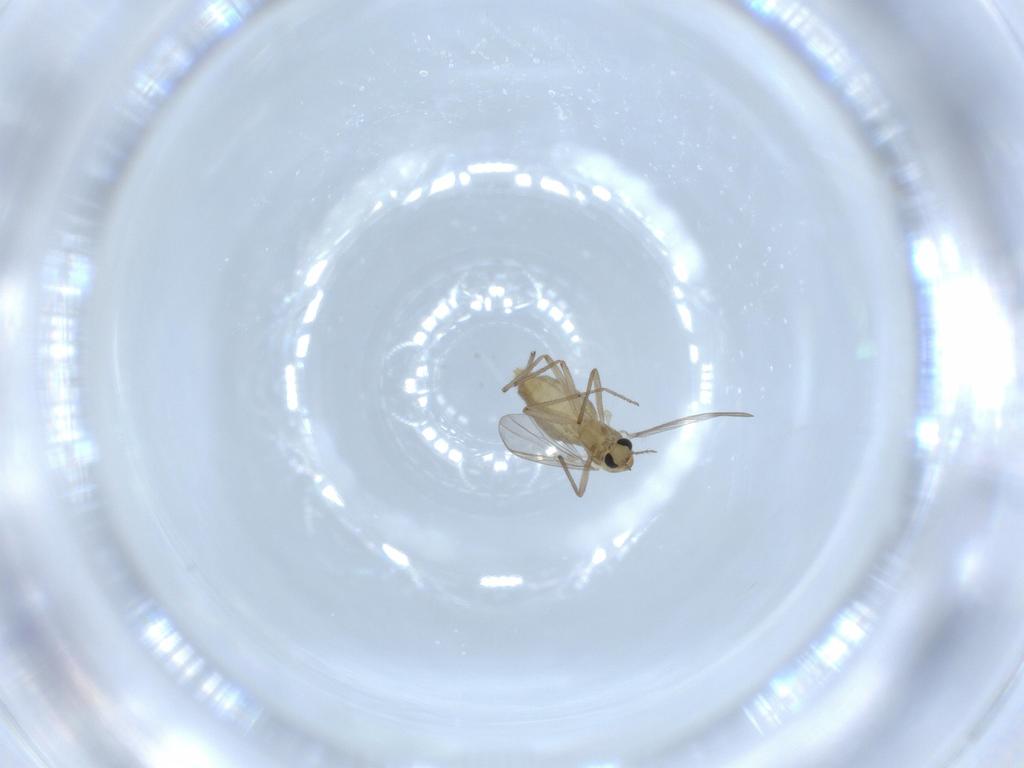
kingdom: Animalia
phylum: Arthropoda
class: Insecta
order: Diptera
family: Chironomidae
